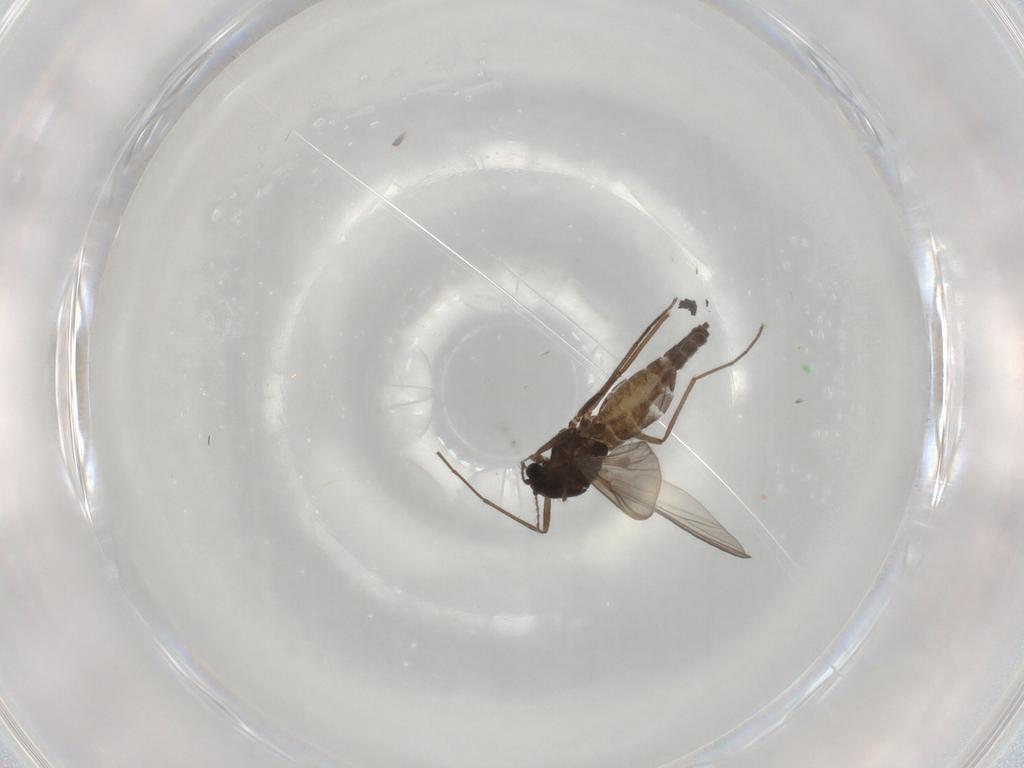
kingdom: Animalia
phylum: Arthropoda
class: Insecta
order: Diptera
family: Chironomidae
